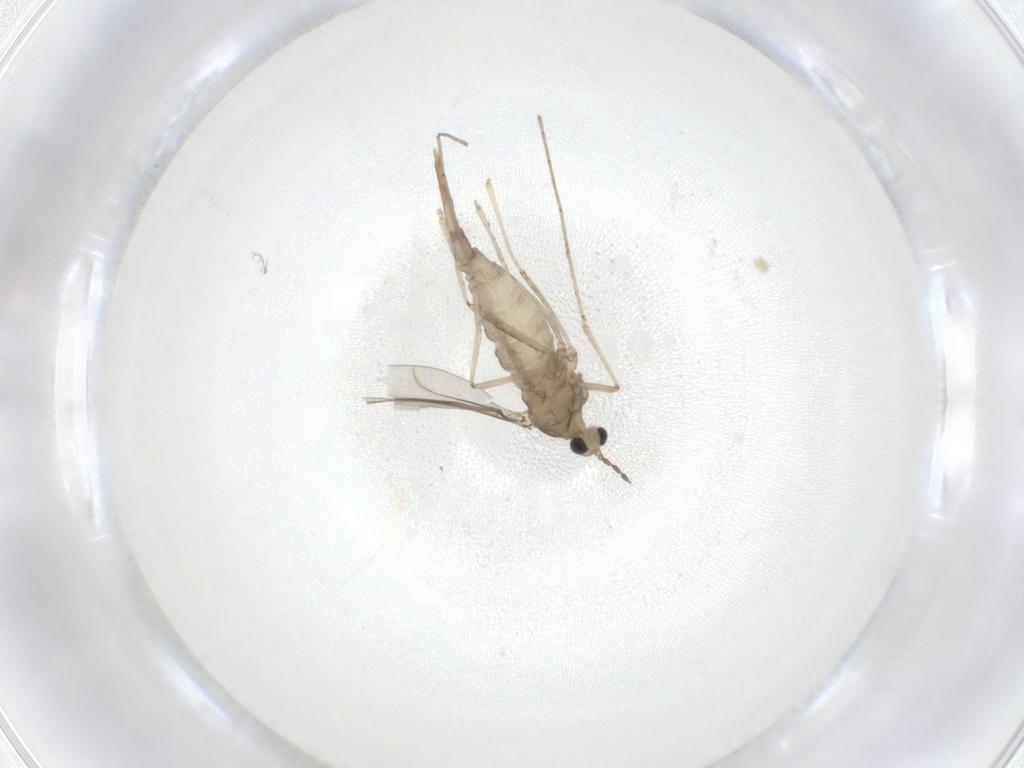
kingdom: Animalia
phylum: Arthropoda
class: Insecta
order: Diptera
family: Cecidomyiidae
